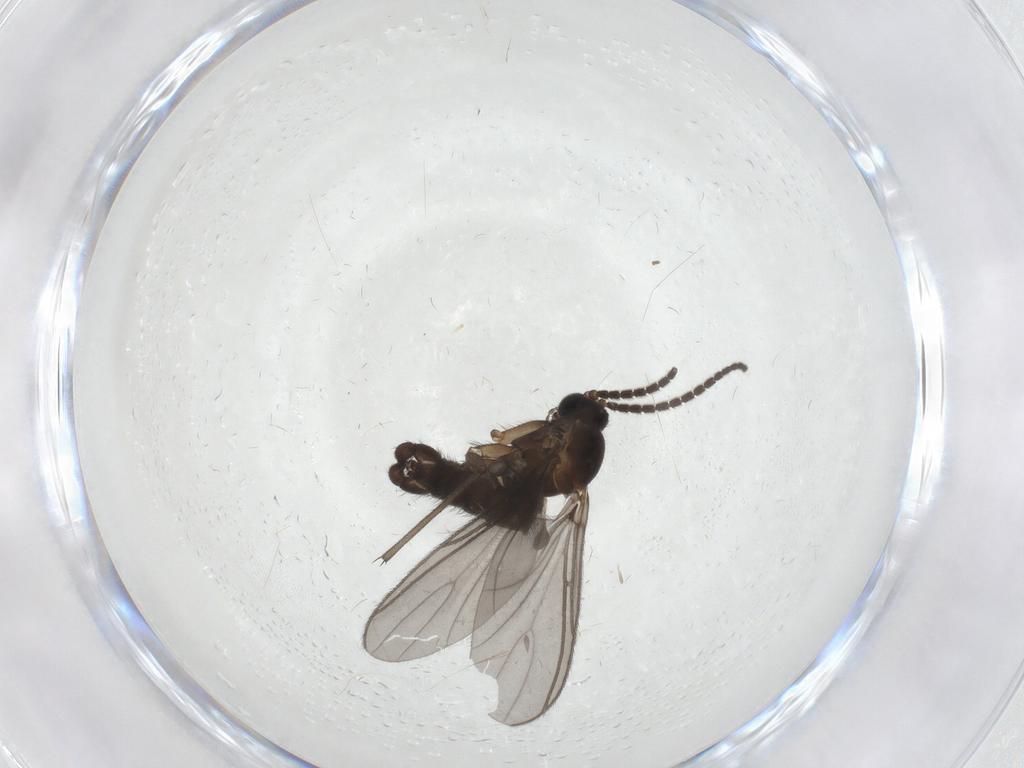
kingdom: Animalia
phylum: Arthropoda
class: Insecta
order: Diptera
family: Sciaridae
